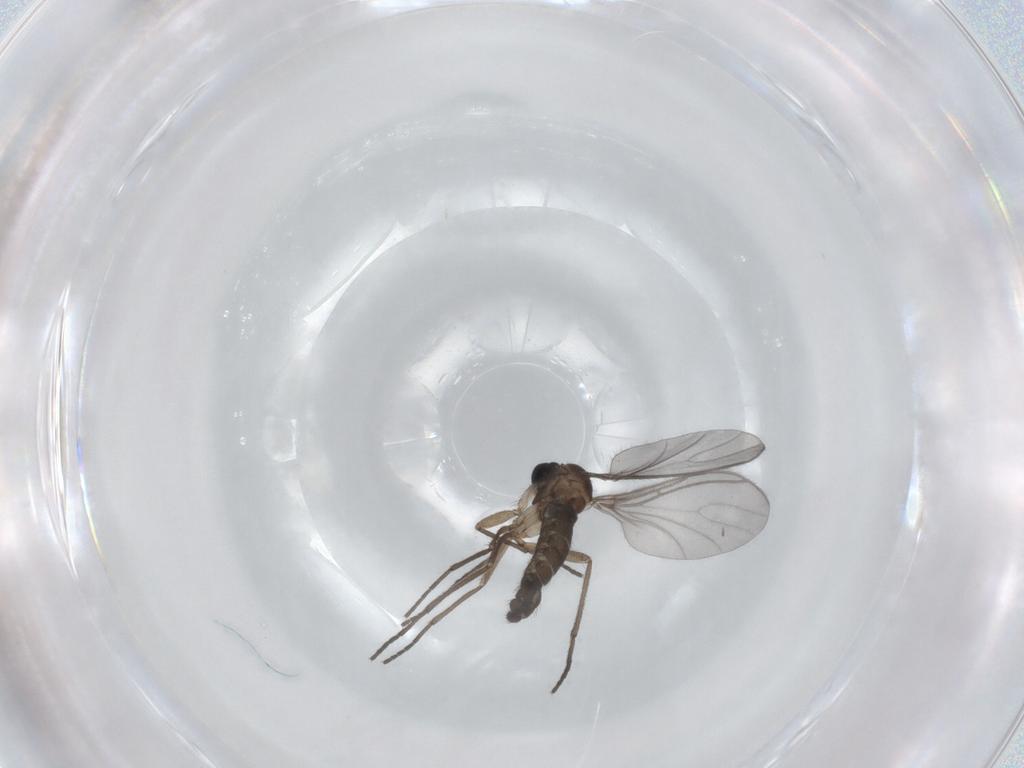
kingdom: Animalia
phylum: Arthropoda
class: Insecta
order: Diptera
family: Sciaridae
